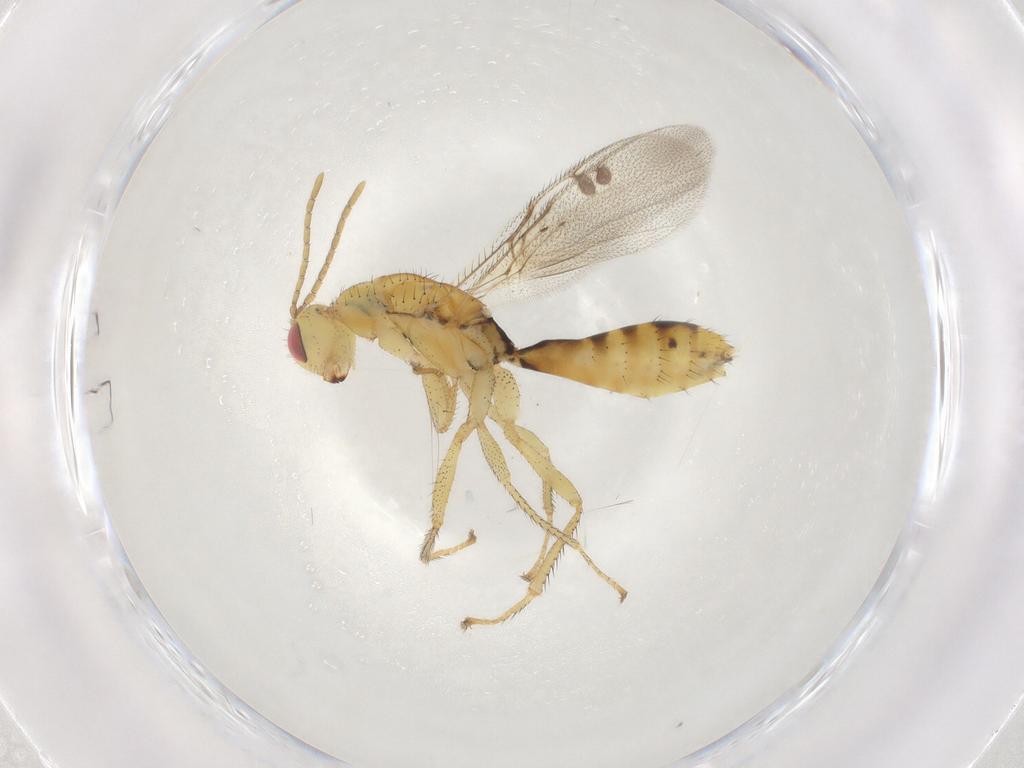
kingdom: Animalia
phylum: Arthropoda
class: Insecta
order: Hymenoptera
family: Megastigmidae
